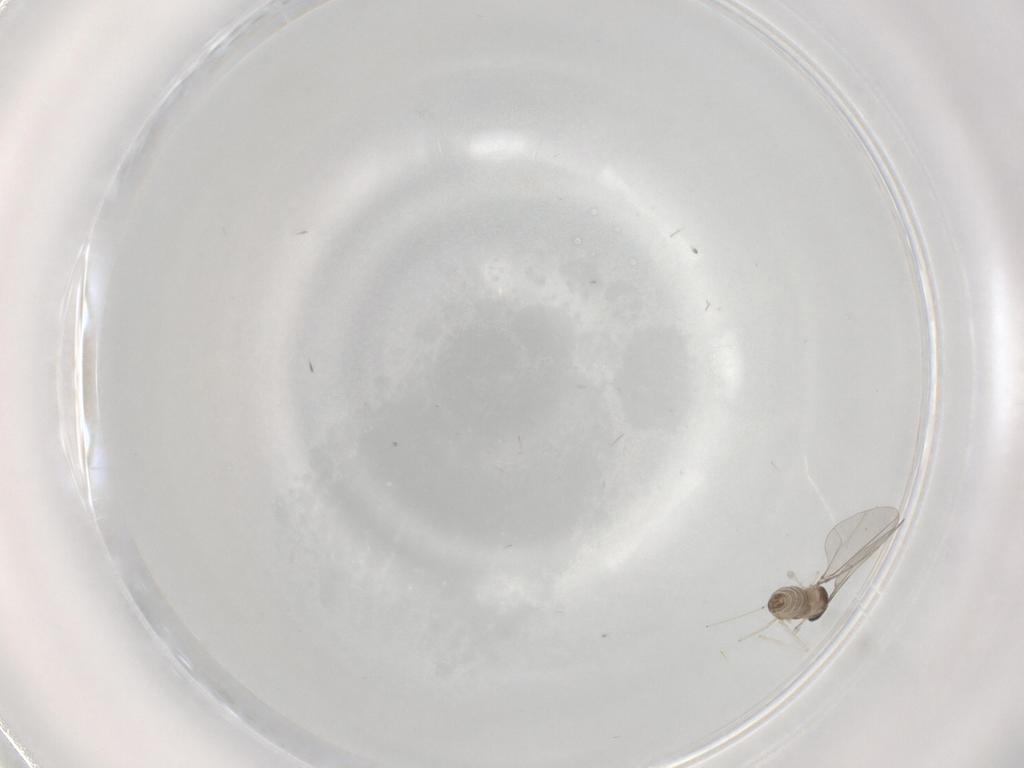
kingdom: Animalia
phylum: Arthropoda
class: Insecta
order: Diptera
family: Cecidomyiidae
